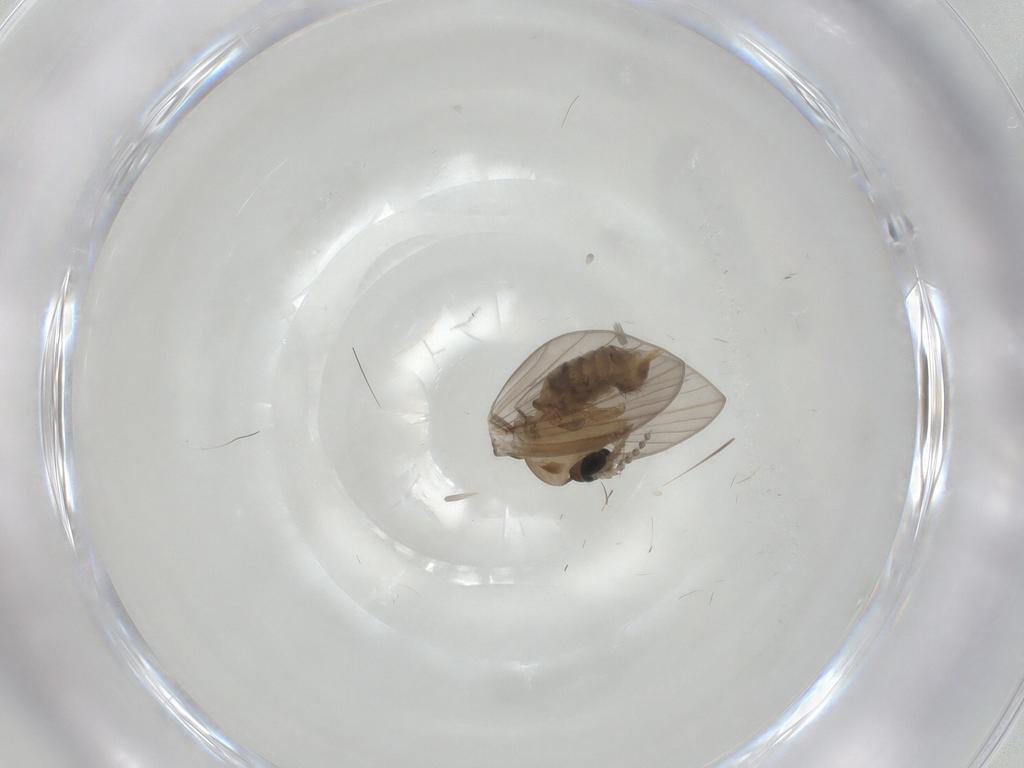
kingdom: Animalia
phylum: Arthropoda
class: Insecta
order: Diptera
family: Psychodidae
